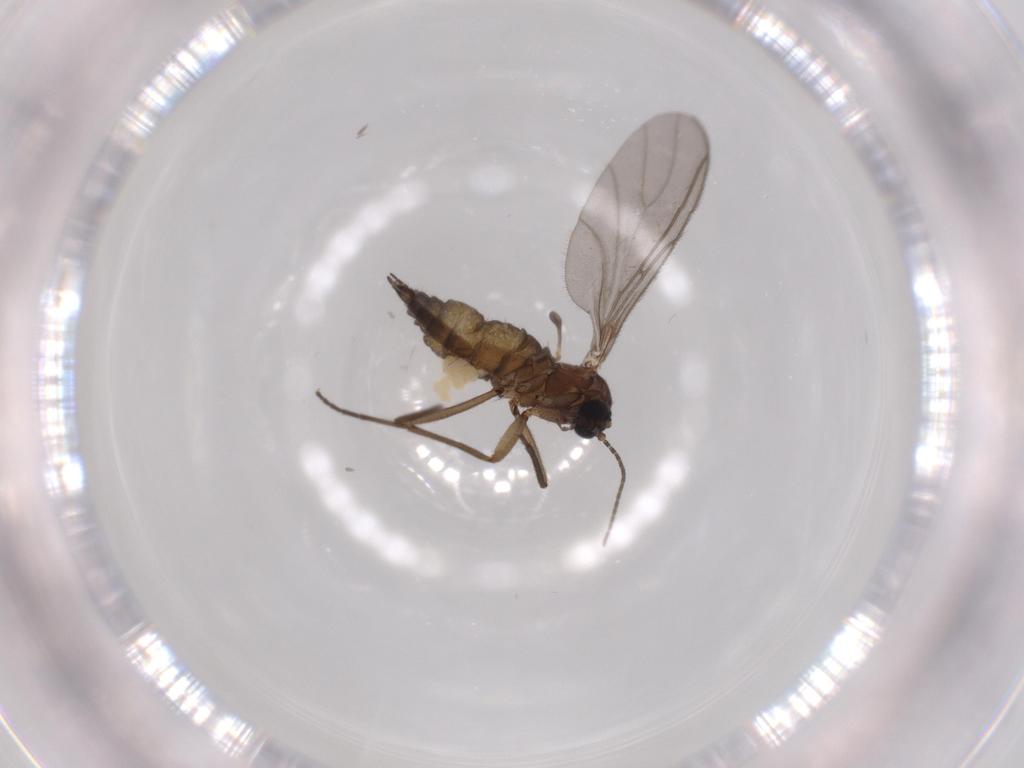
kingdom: Animalia
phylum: Arthropoda
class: Insecta
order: Diptera
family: Sciaridae
